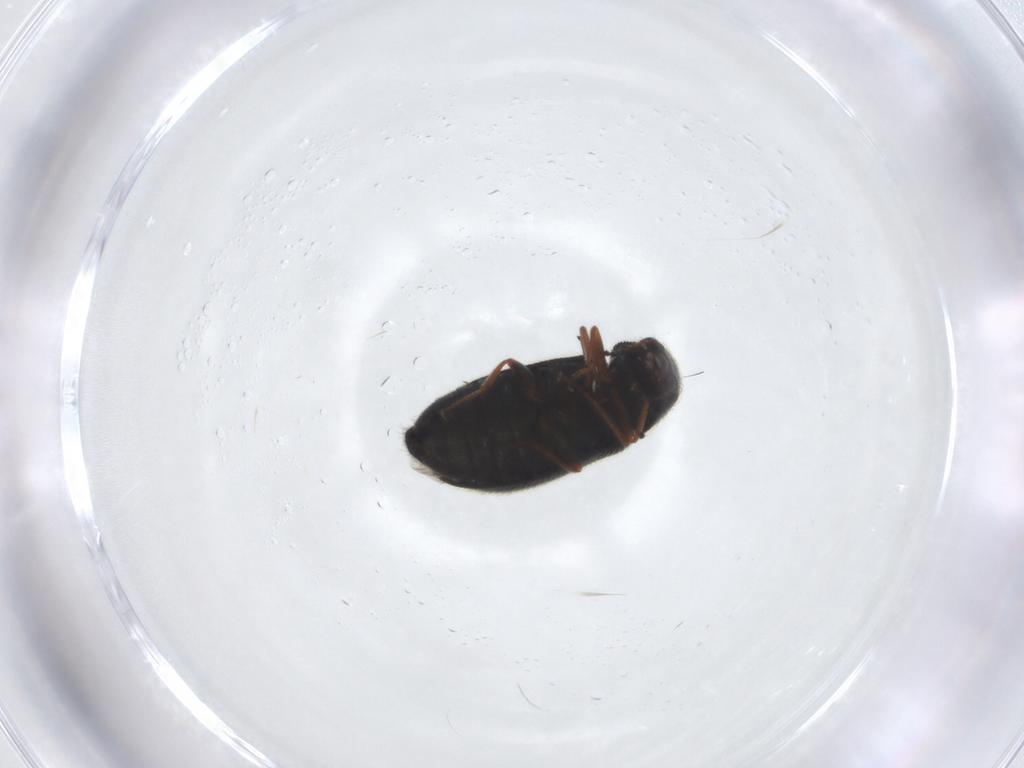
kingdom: Animalia
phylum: Arthropoda
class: Insecta
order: Coleoptera
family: Melyridae
